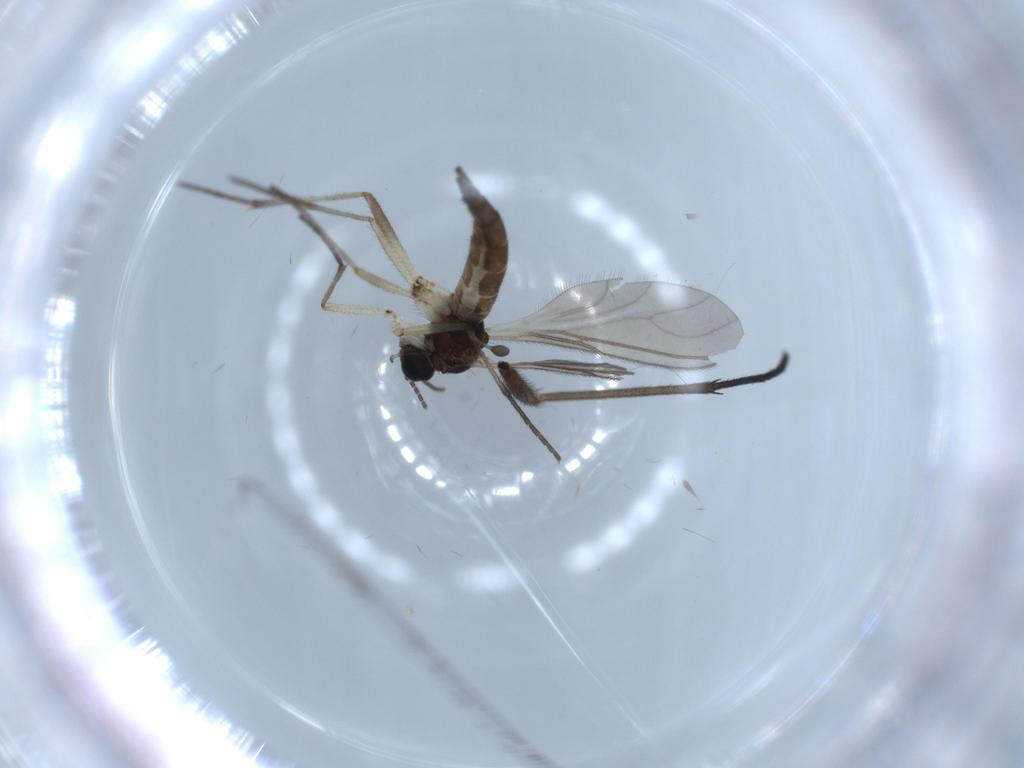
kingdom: Animalia
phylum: Arthropoda
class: Insecta
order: Diptera
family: Sciaridae
